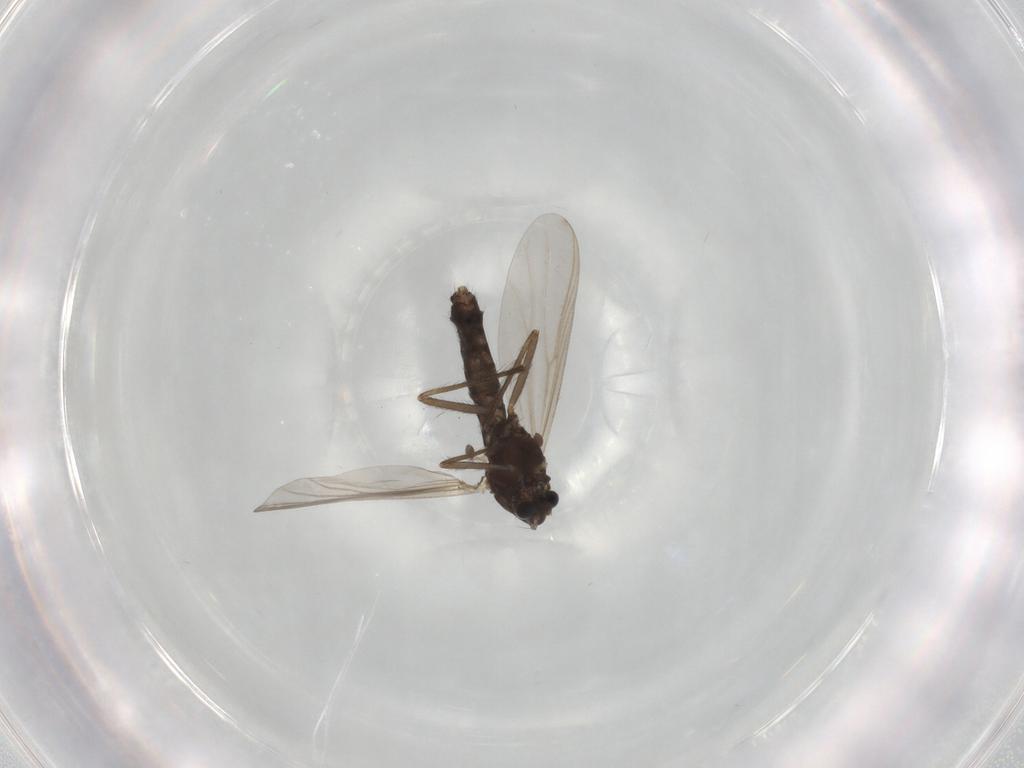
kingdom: Animalia
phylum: Arthropoda
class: Insecta
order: Diptera
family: Chironomidae
